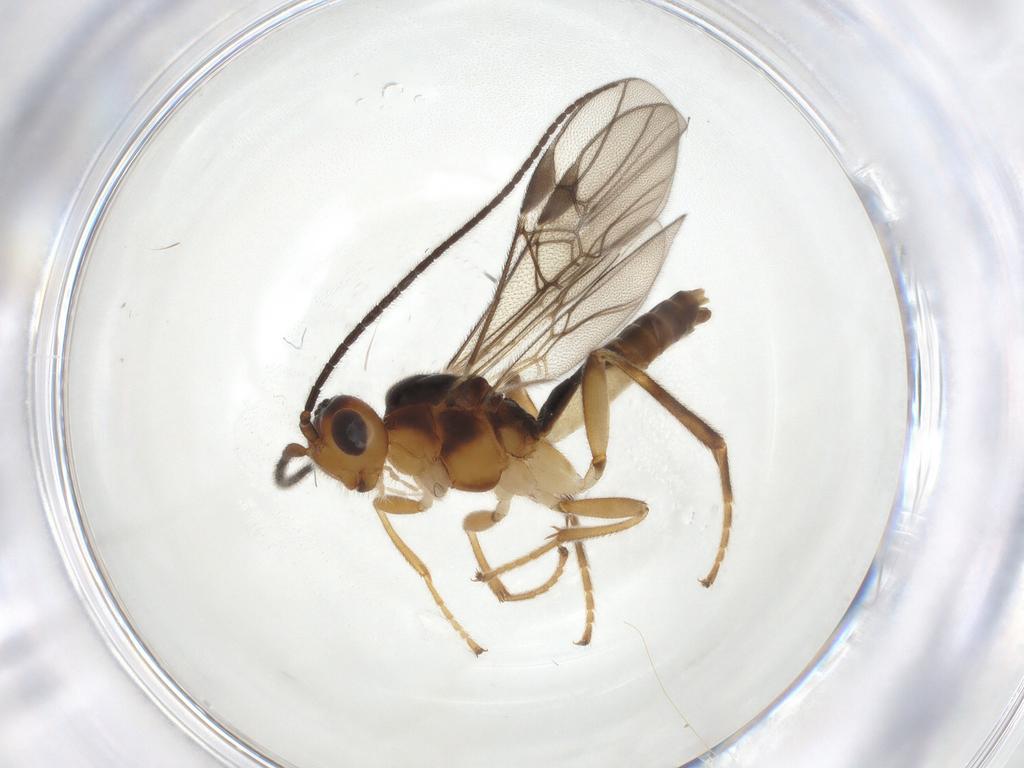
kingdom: Animalia
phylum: Arthropoda
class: Insecta
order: Hymenoptera
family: Braconidae
